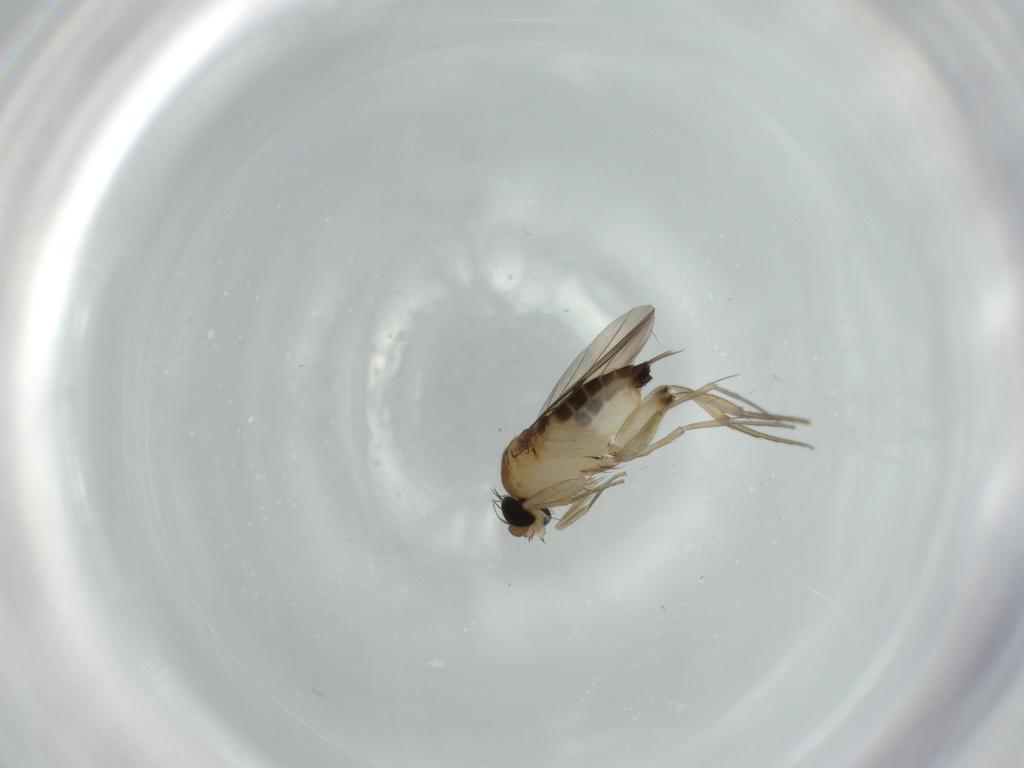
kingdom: Animalia
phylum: Arthropoda
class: Insecta
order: Diptera
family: Phoridae
